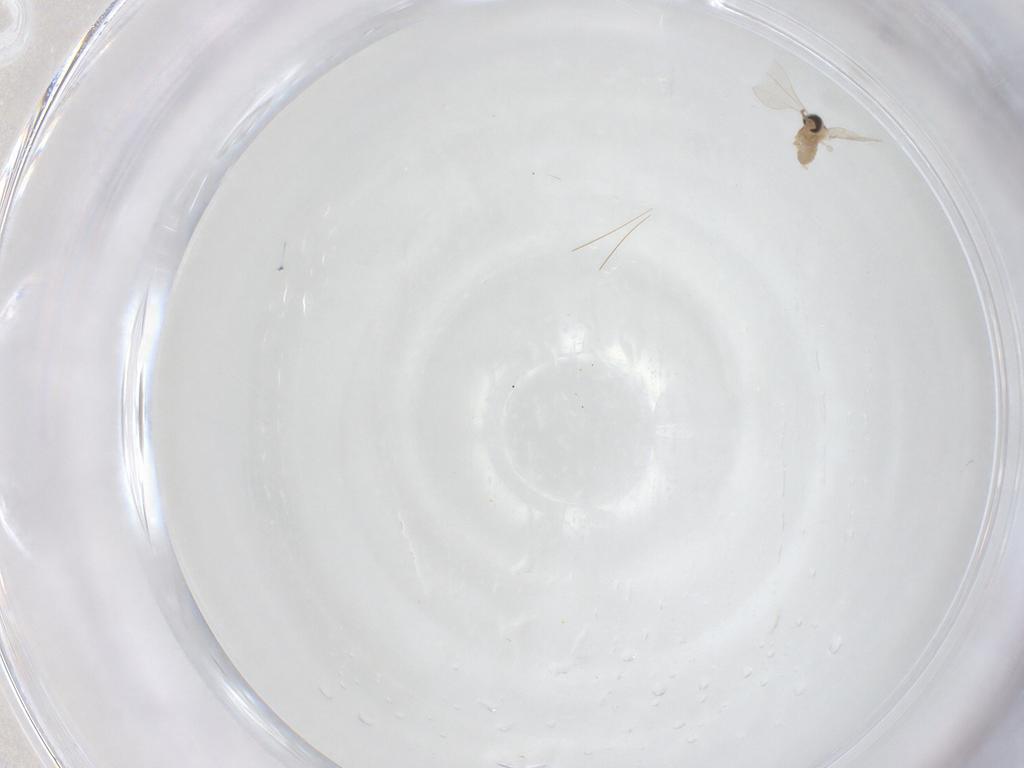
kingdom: Animalia
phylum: Arthropoda
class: Insecta
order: Diptera
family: Cecidomyiidae
